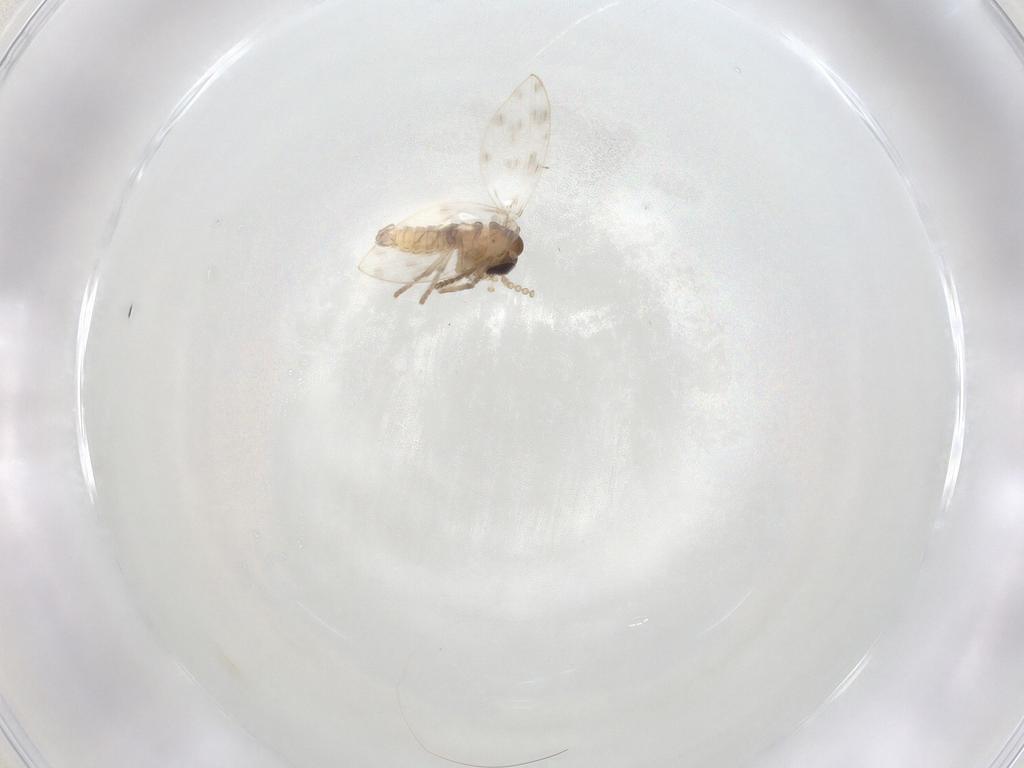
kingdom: Animalia
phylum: Arthropoda
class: Insecta
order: Diptera
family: Psychodidae
